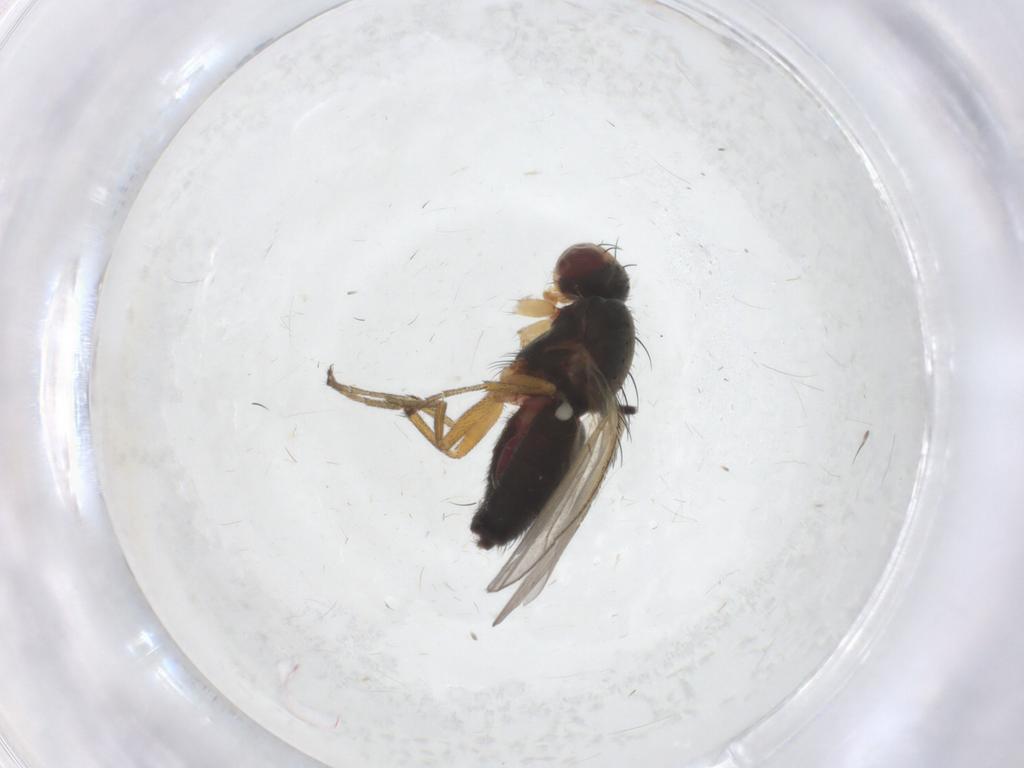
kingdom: Animalia
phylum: Arthropoda
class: Insecta
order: Diptera
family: Heleomyzidae
